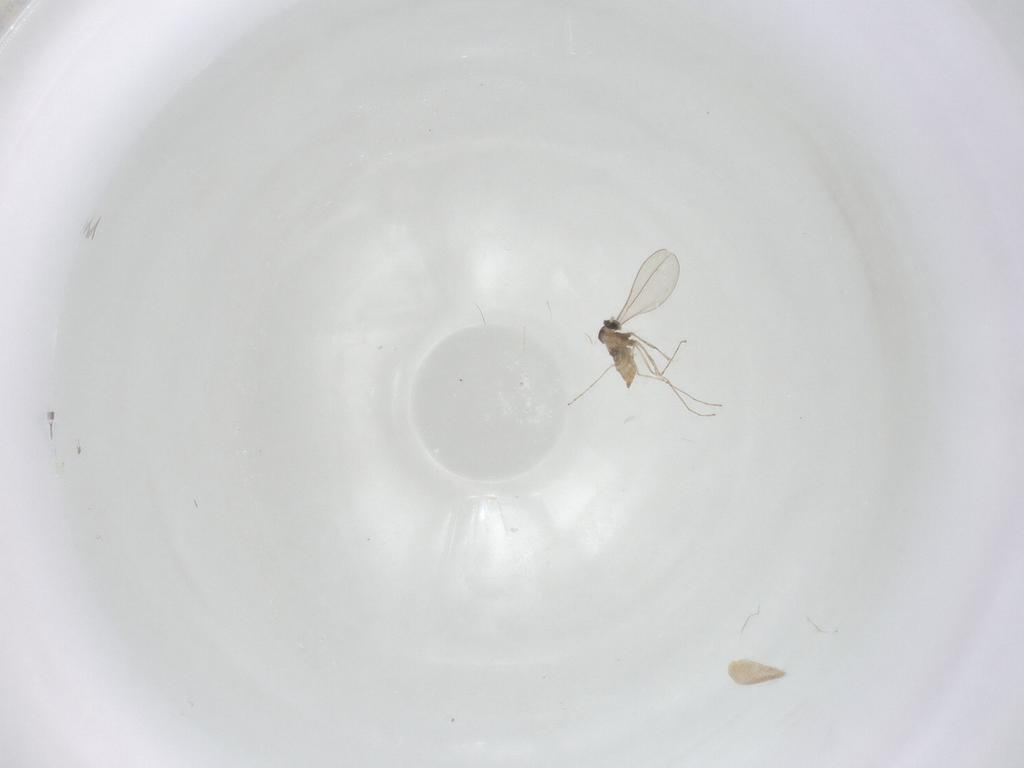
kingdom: Animalia
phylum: Arthropoda
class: Insecta
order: Diptera
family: Cecidomyiidae
